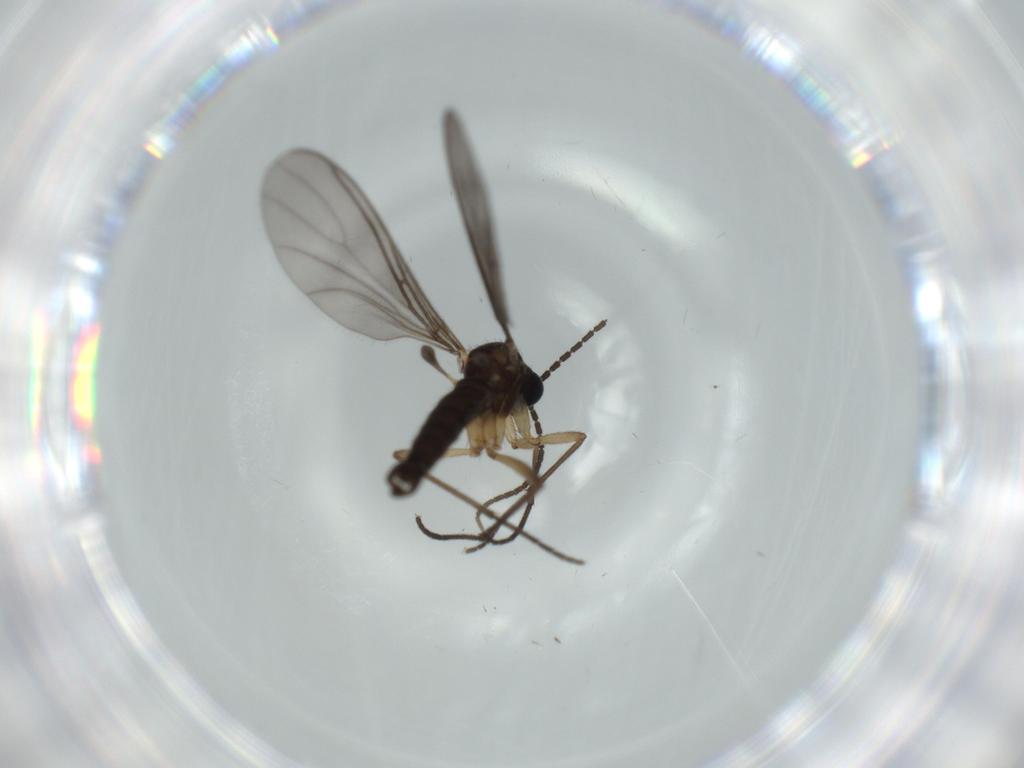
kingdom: Animalia
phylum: Arthropoda
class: Insecta
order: Diptera
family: Sciaridae
